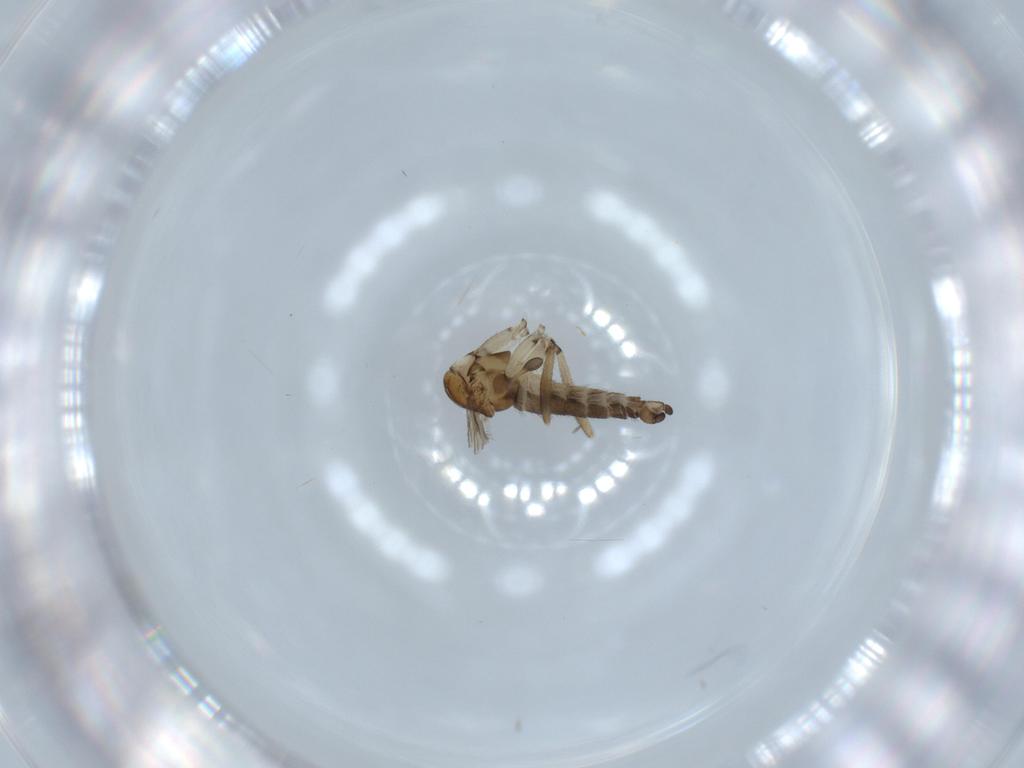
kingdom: Animalia
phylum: Arthropoda
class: Insecta
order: Diptera
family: Sciaridae
